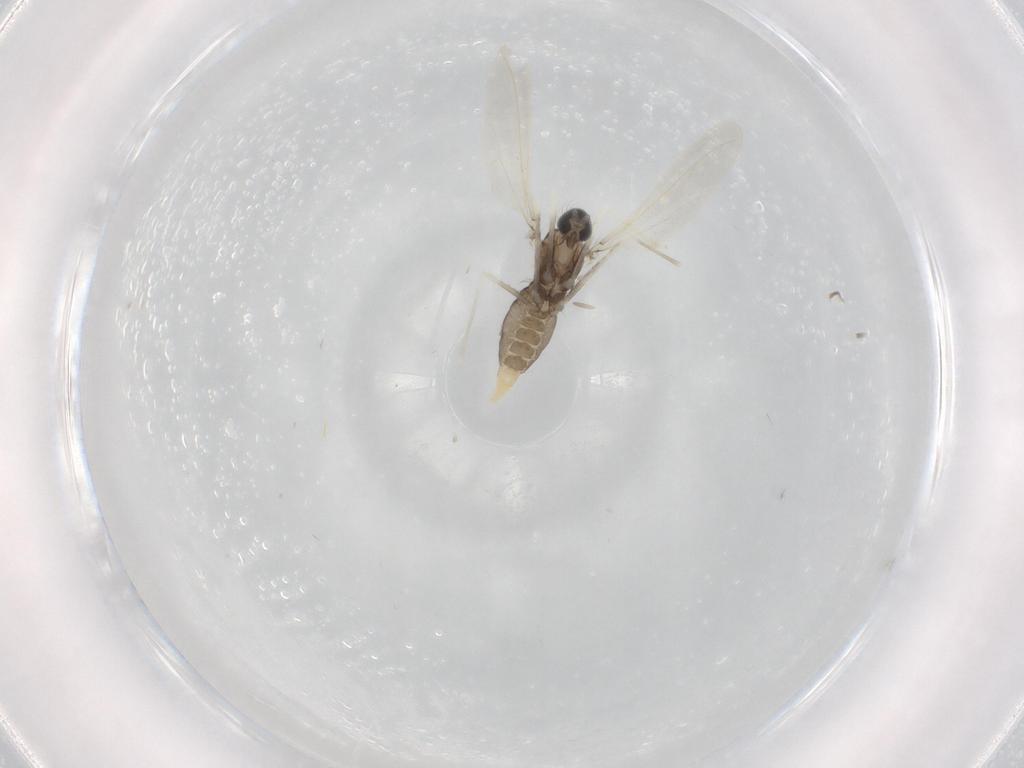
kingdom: Animalia
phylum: Arthropoda
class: Insecta
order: Diptera
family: Cecidomyiidae
